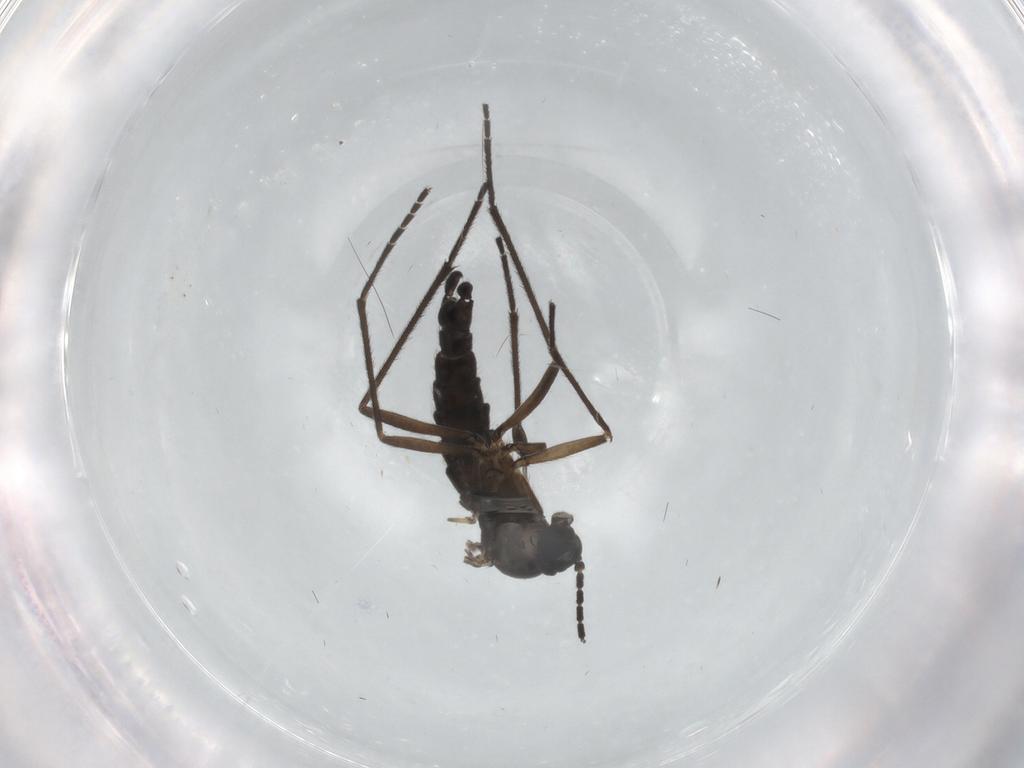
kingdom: Animalia
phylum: Arthropoda
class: Insecta
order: Diptera
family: Sciaridae
